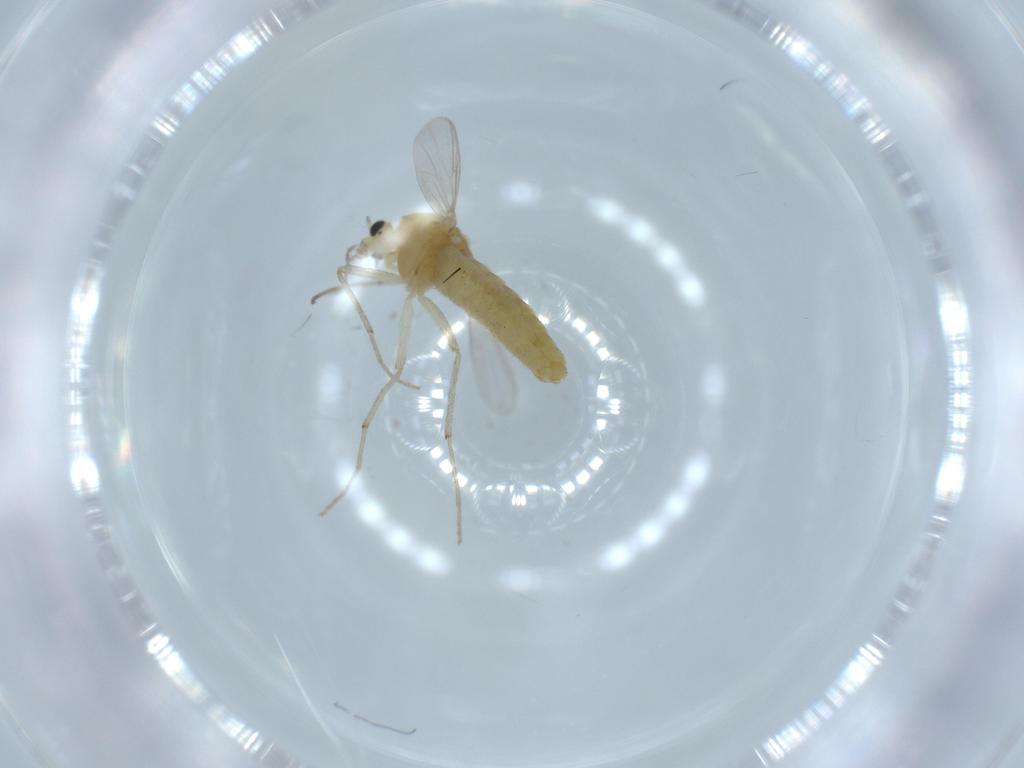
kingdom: Animalia
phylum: Arthropoda
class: Insecta
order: Diptera
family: Chironomidae
